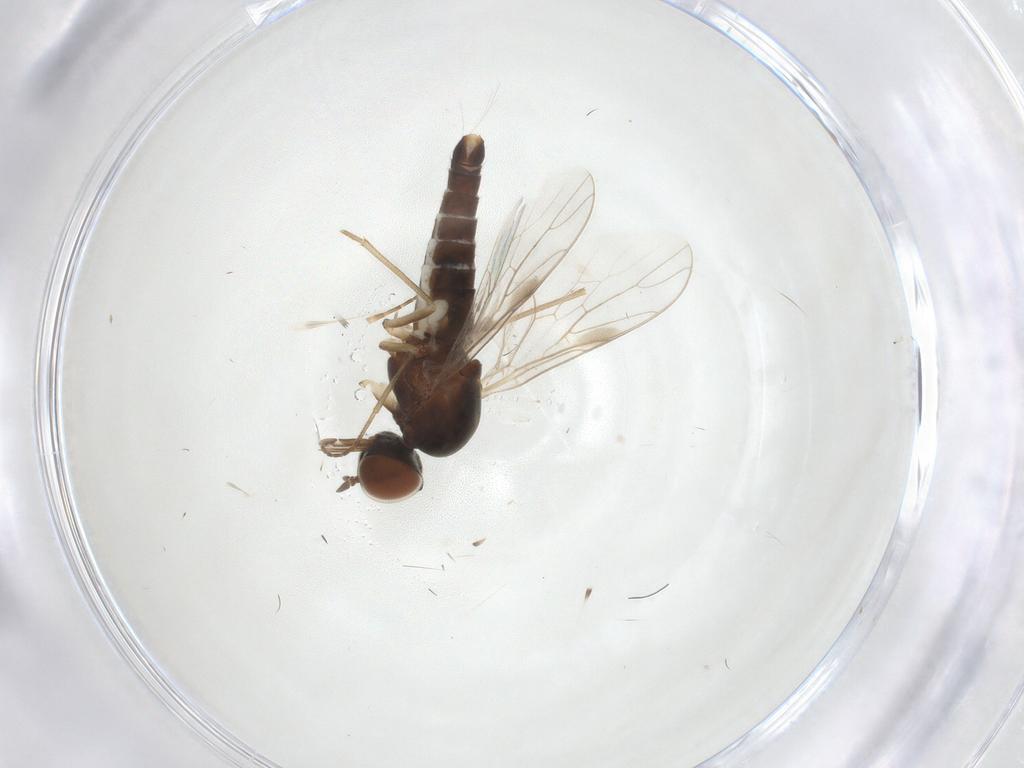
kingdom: Animalia
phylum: Arthropoda
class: Insecta
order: Diptera
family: Scenopinidae
